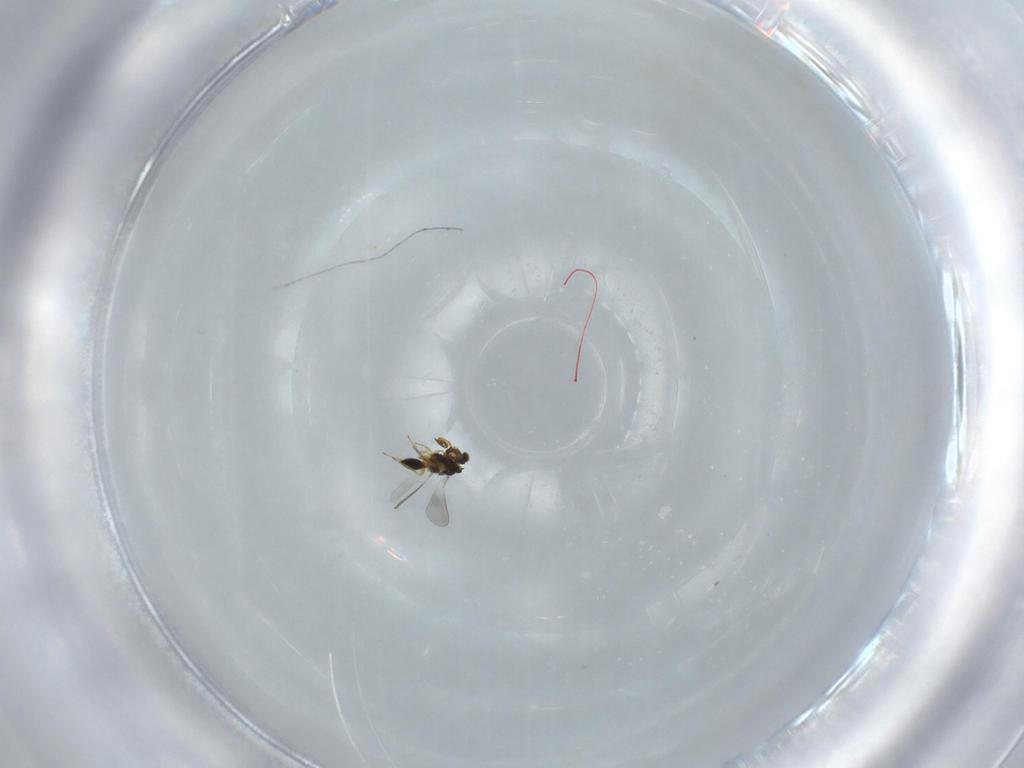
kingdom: Animalia
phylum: Arthropoda
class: Insecta
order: Hymenoptera
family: Platygastridae
